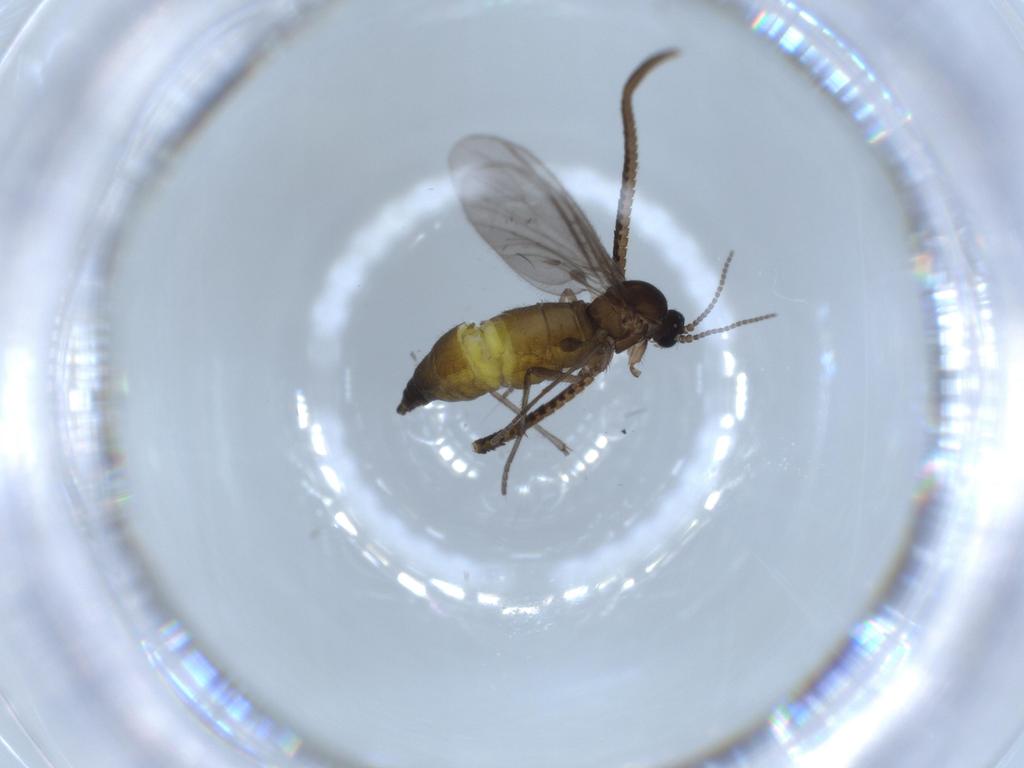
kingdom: Animalia
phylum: Arthropoda
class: Insecta
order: Diptera
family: Sciaridae
